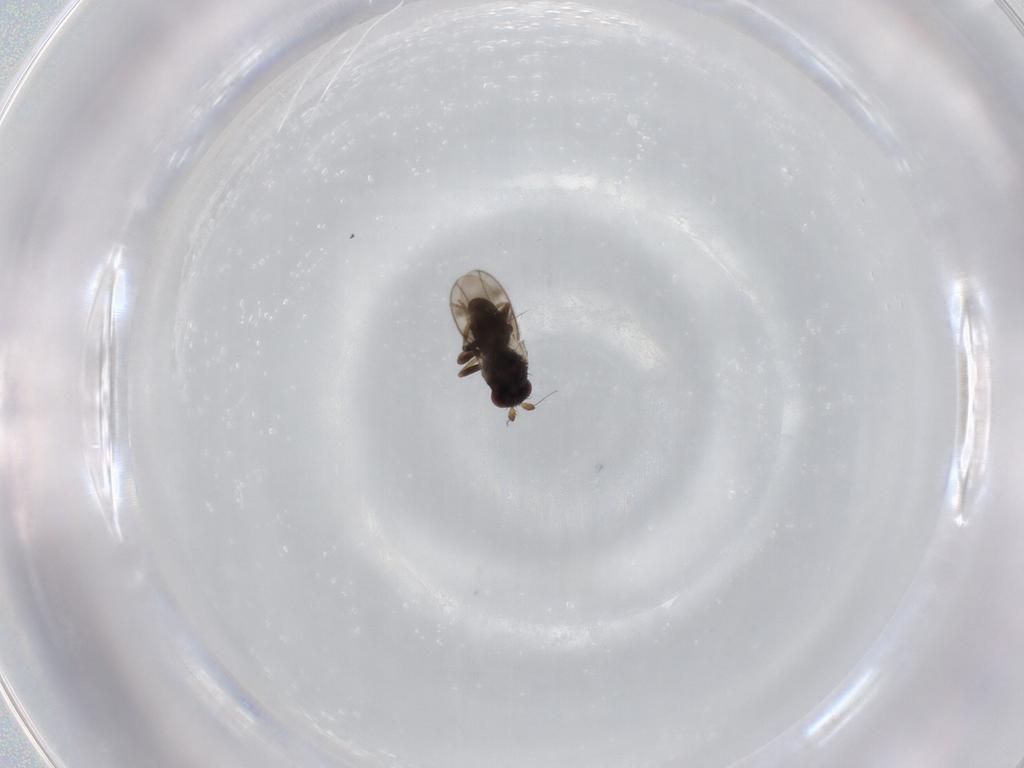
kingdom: Animalia
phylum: Arthropoda
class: Insecta
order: Diptera
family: Sphaeroceridae
